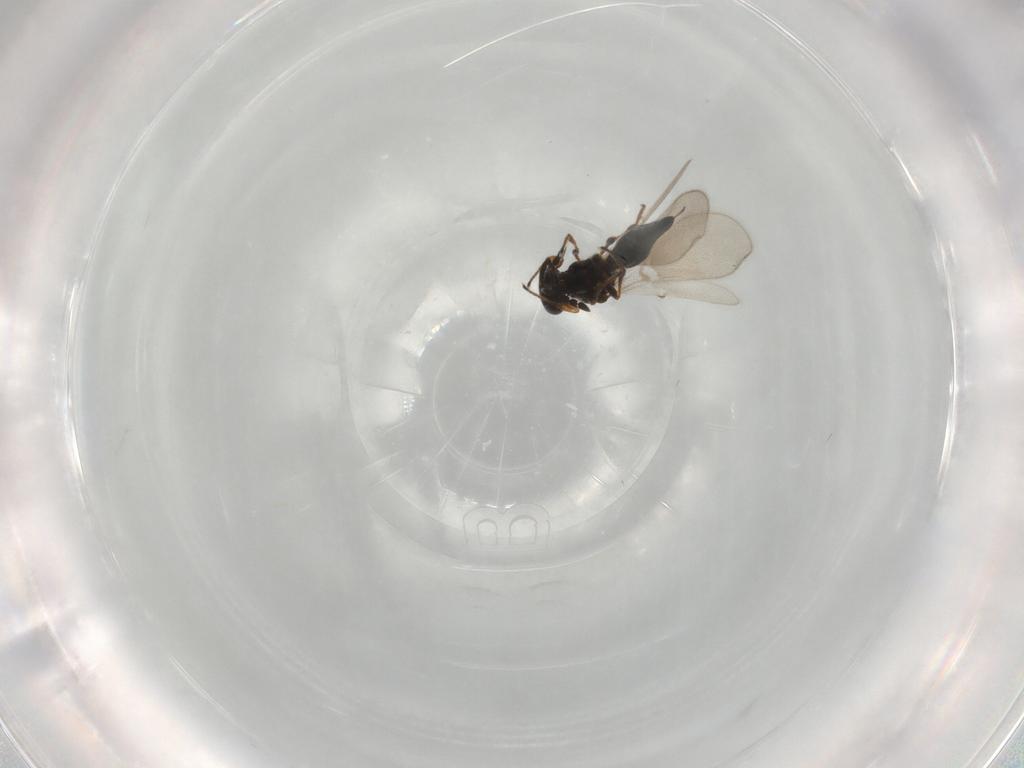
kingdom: Animalia
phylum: Arthropoda
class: Insecta
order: Hymenoptera
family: Platygastridae
